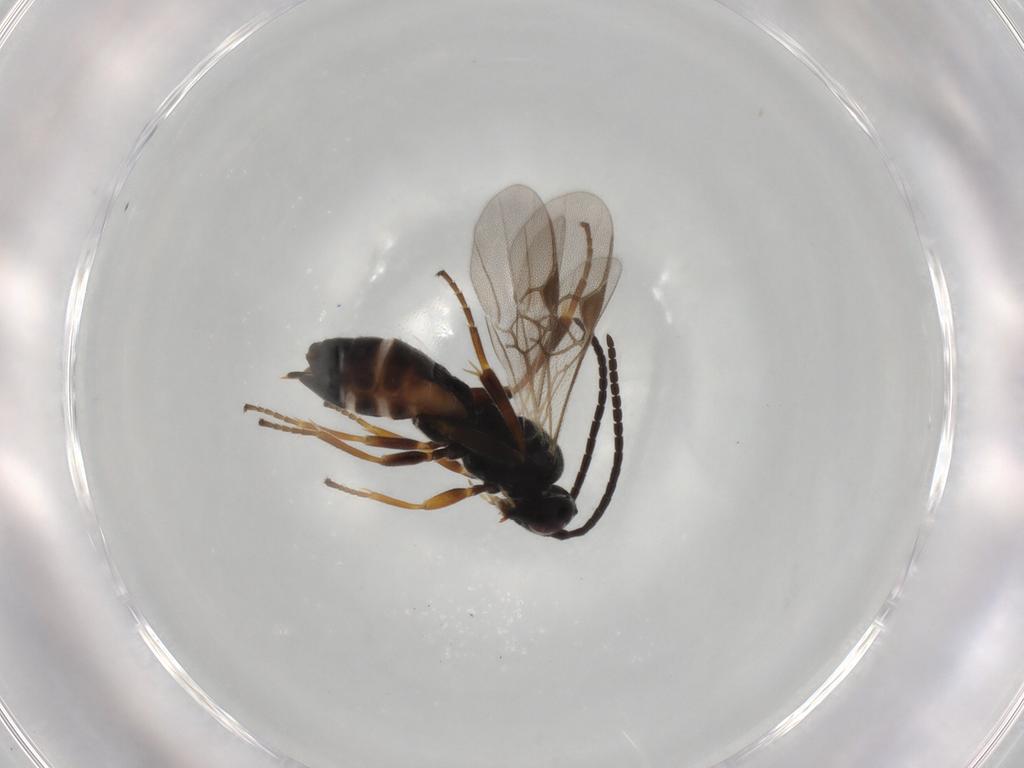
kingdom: Animalia
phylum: Arthropoda
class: Insecta
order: Hymenoptera
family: Braconidae
